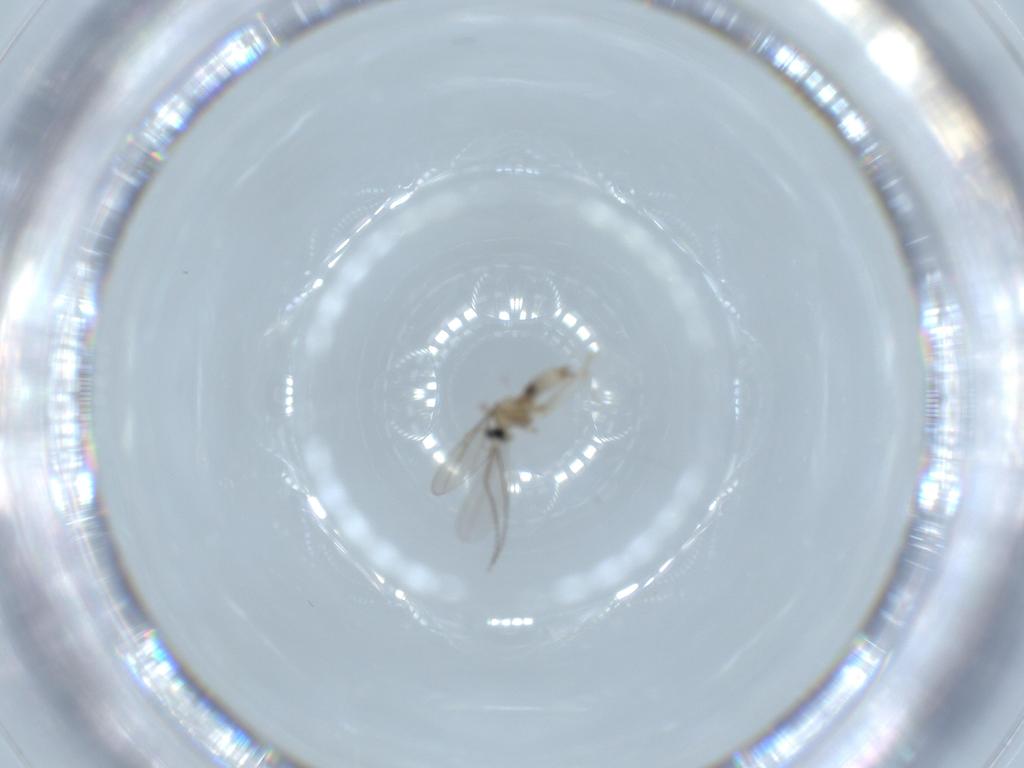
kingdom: Animalia
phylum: Arthropoda
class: Insecta
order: Diptera
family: Cecidomyiidae
